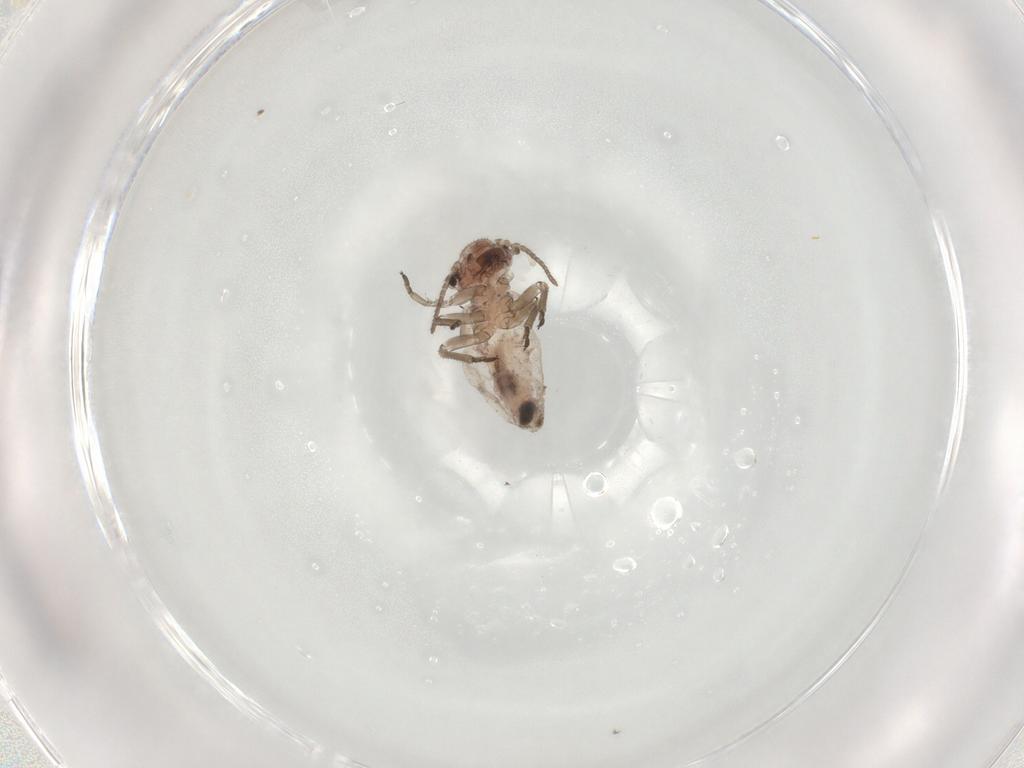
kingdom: Animalia
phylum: Arthropoda
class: Insecta
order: Psocodea
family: Archipsocidae
